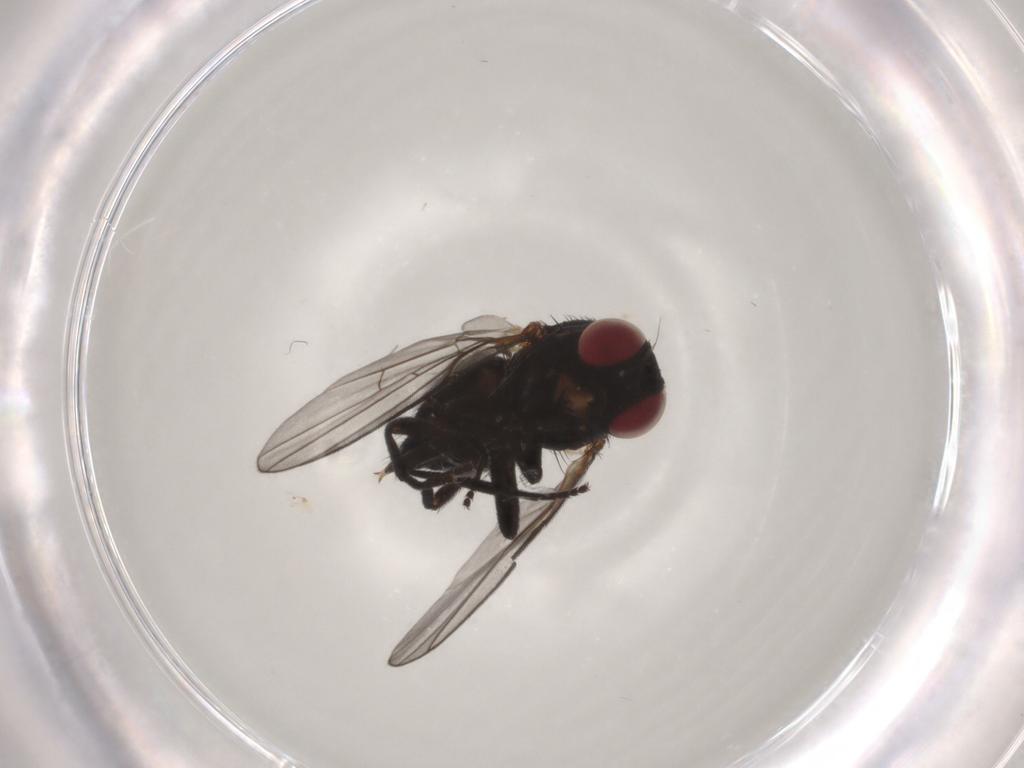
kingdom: Animalia
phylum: Arthropoda
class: Insecta
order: Diptera
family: Agromyzidae
